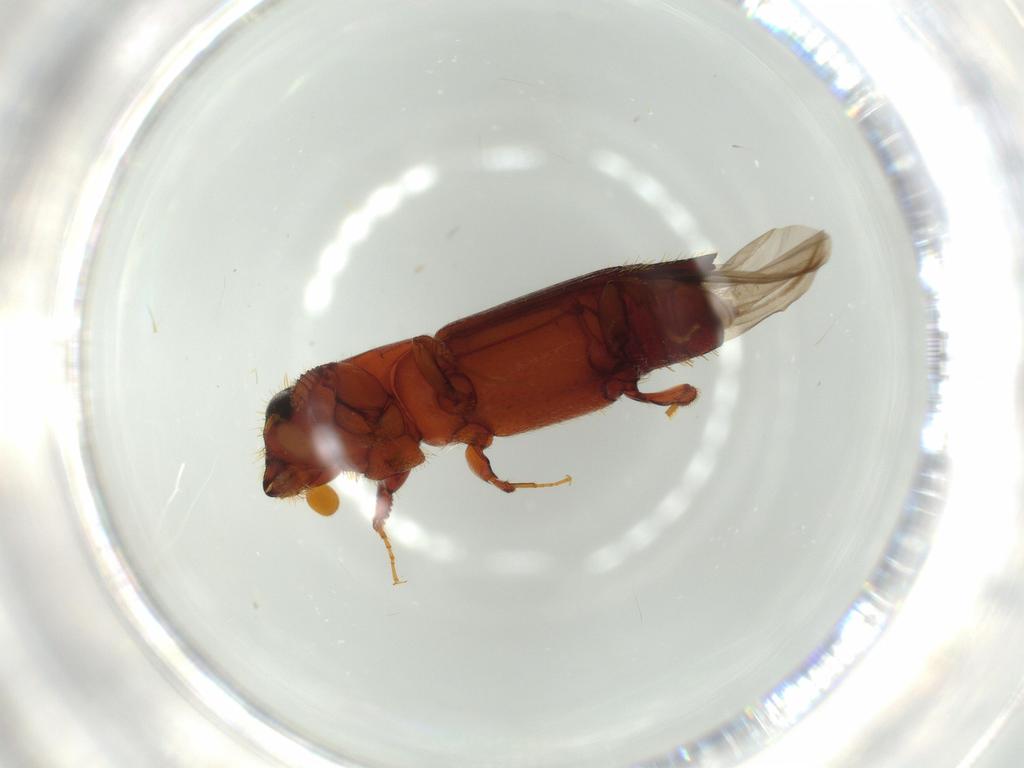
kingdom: Animalia
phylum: Arthropoda
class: Insecta
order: Coleoptera
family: Chrysomelidae
